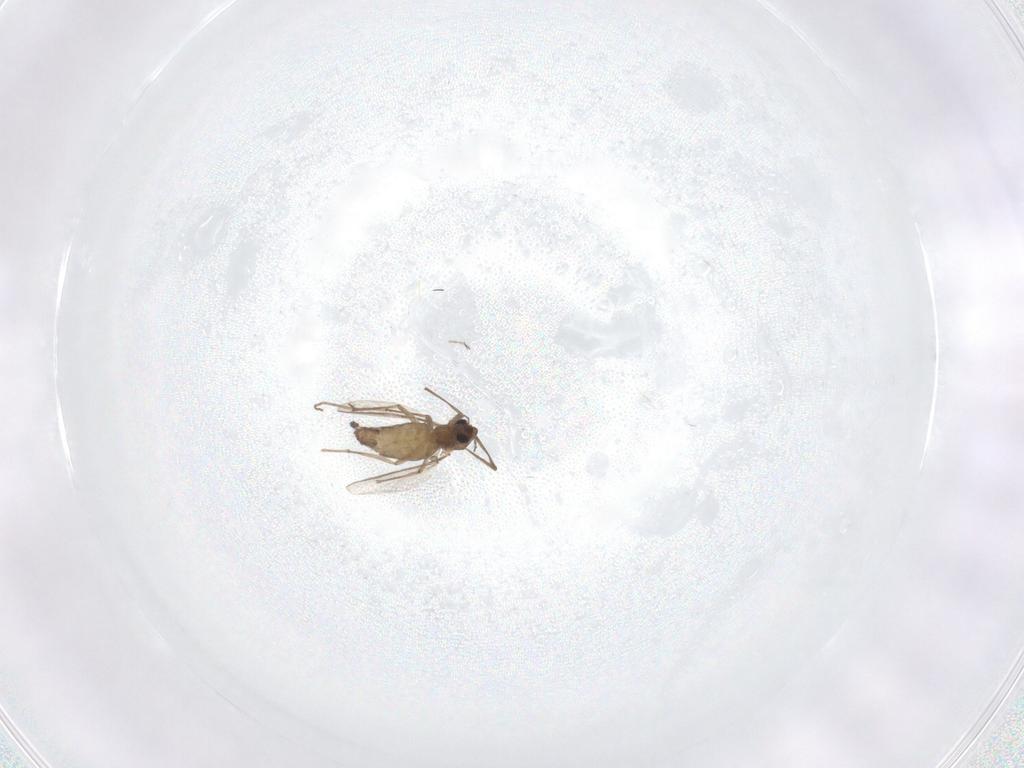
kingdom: Animalia
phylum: Arthropoda
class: Insecta
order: Diptera
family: Chironomidae
